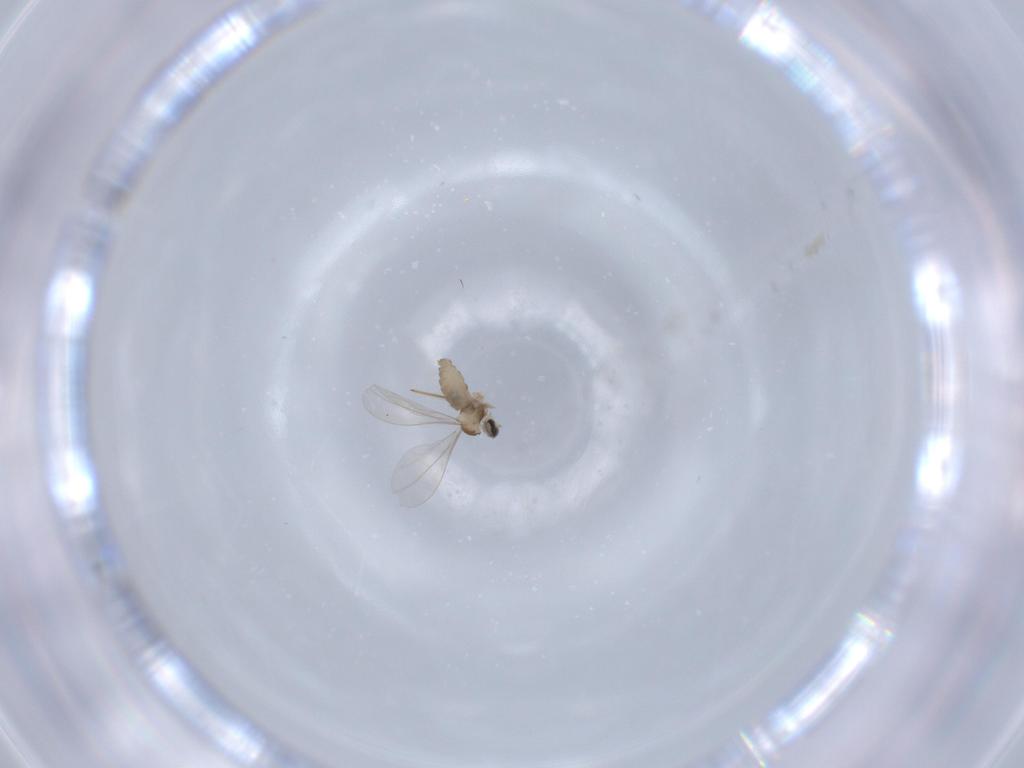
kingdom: Animalia
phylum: Arthropoda
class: Insecta
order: Diptera
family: Cecidomyiidae
